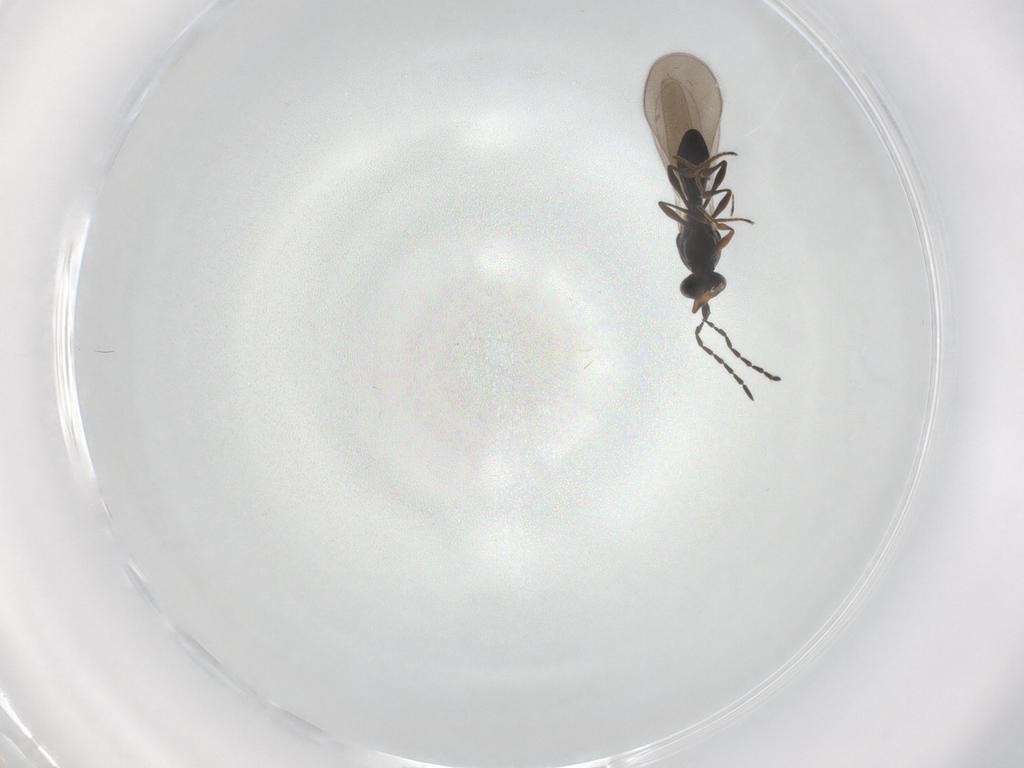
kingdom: Animalia
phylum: Arthropoda
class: Insecta
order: Hymenoptera
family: Platygastridae
